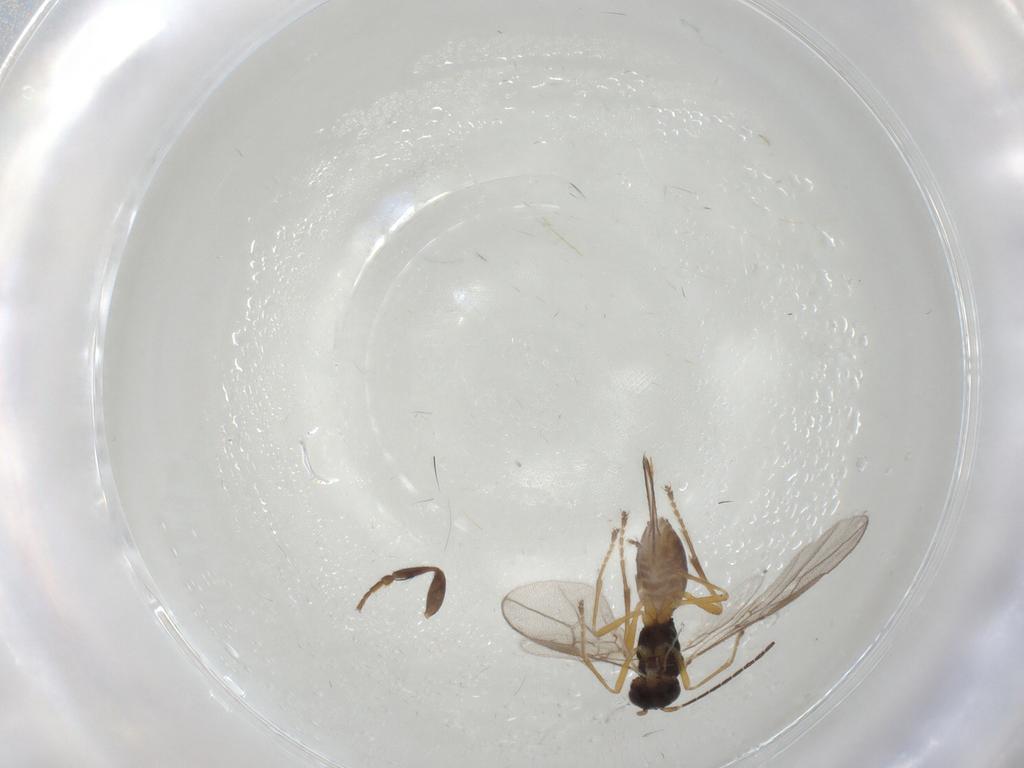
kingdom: Animalia
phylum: Arthropoda
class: Insecta
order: Hymenoptera
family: Braconidae
